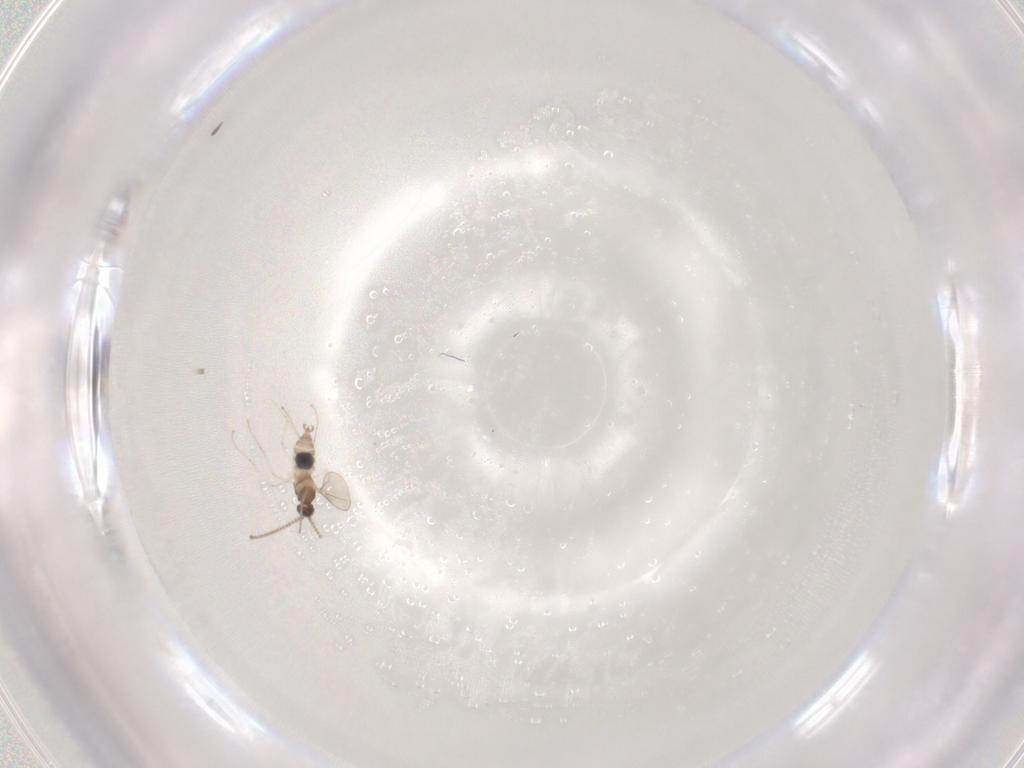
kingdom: Animalia
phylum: Arthropoda
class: Insecta
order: Diptera
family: Cecidomyiidae
